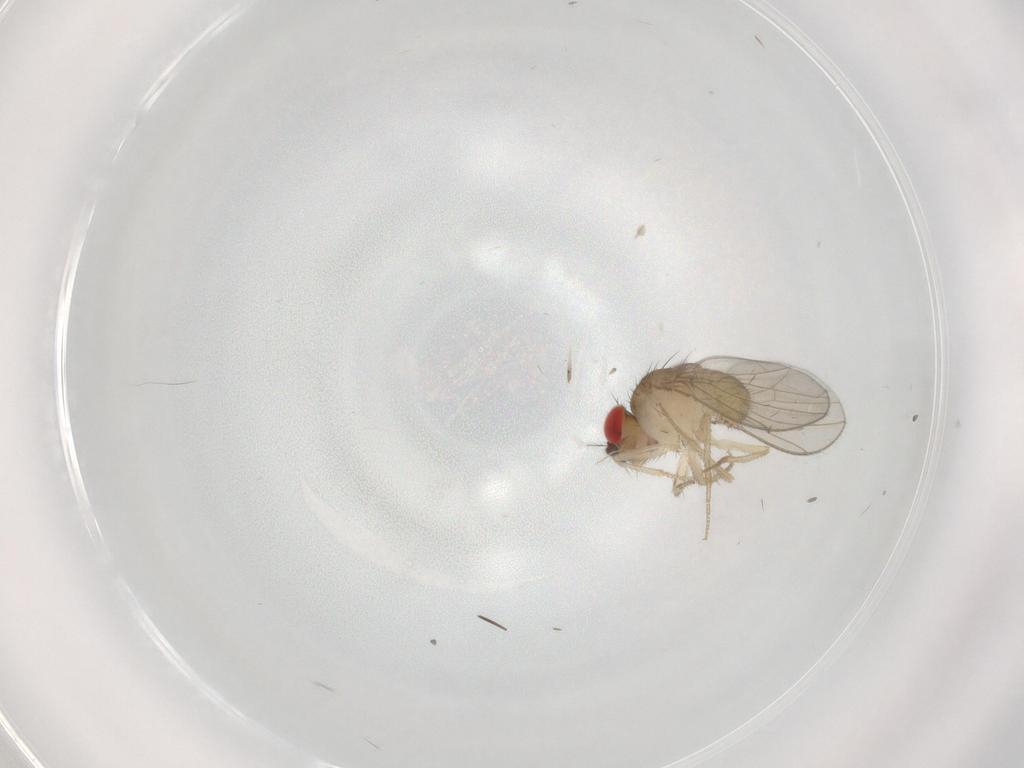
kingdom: Animalia
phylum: Arthropoda
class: Insecta
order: Diptera
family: Drosophilidae
